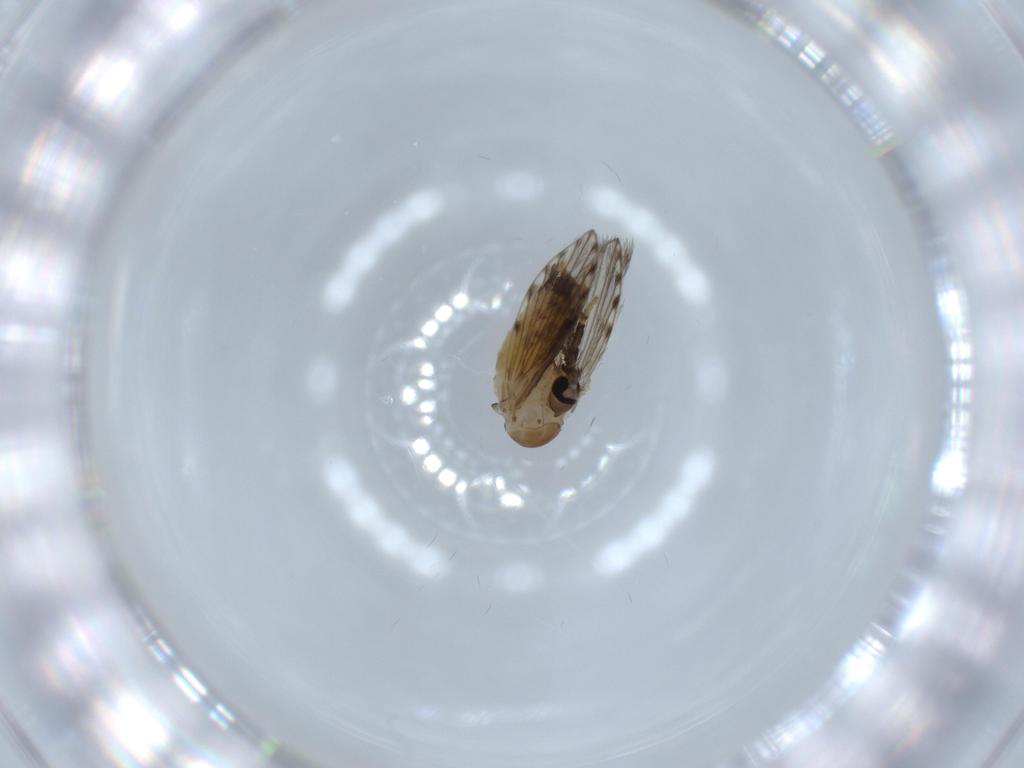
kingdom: Animalia
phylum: Arthropoda
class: Insecta
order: Diptera
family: Psychodidae
